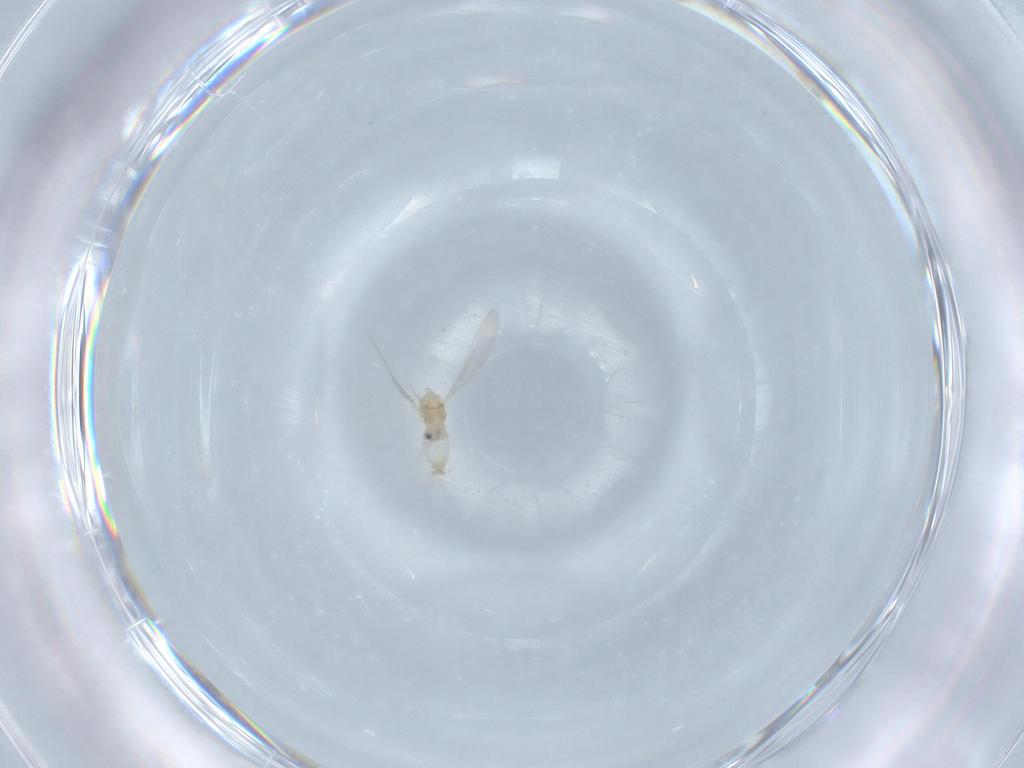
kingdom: Animalia
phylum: Arthropoda
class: Insecta
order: Diptera
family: Cecidomyiidae
